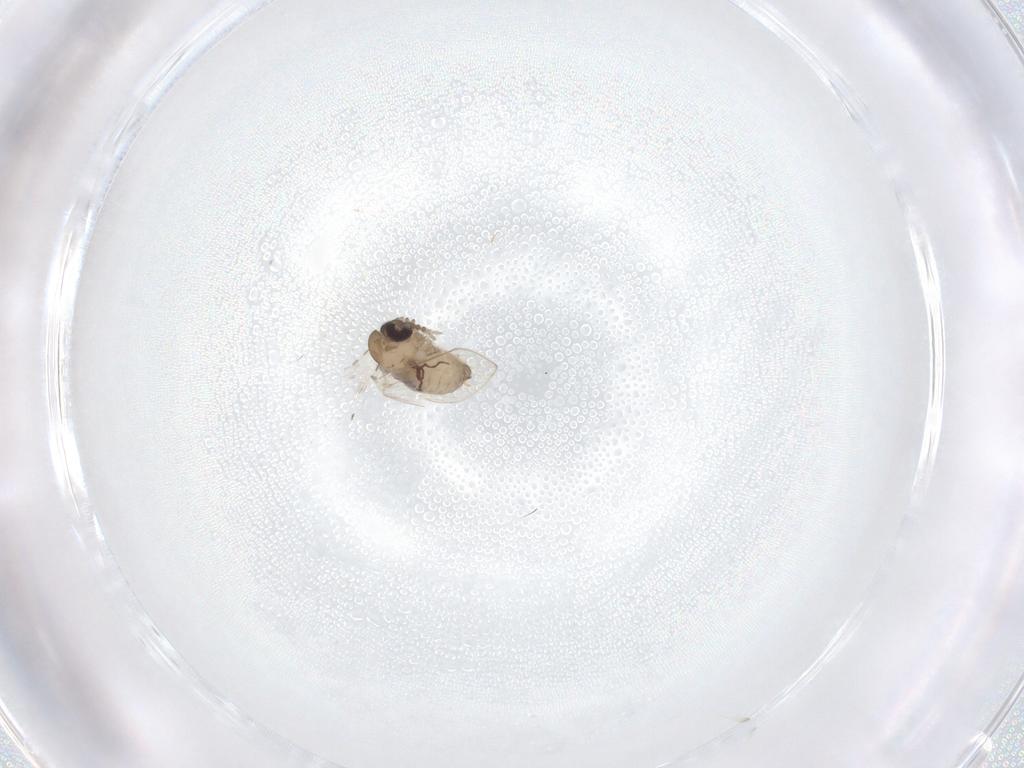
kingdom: Animalia
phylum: Arthropoda
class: Insecta
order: Diptera
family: Psychodidae
